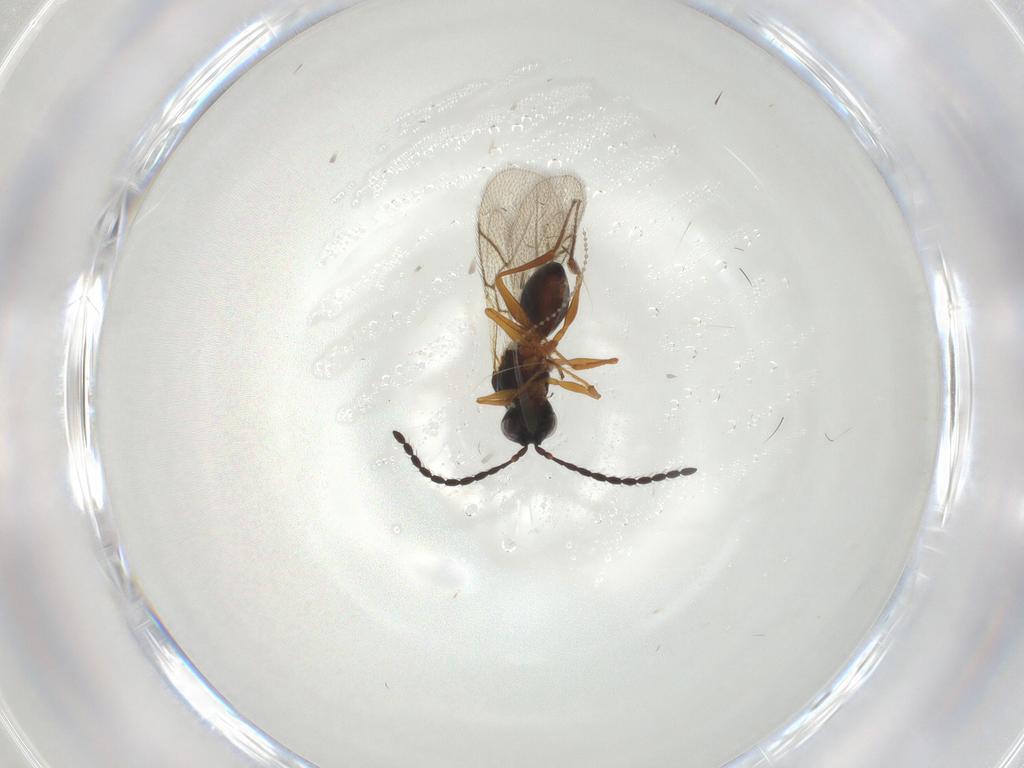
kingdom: Animalia
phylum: Arthropoda
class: Insecta
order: Hymenoptera
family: Figitidae
